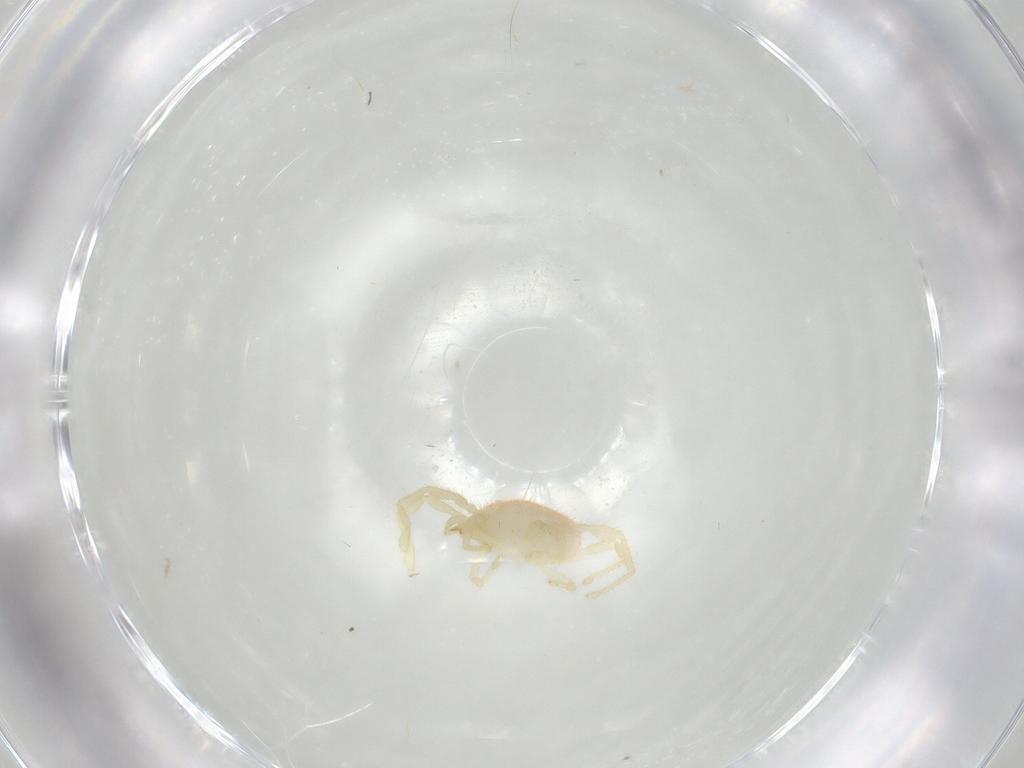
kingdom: Animalia
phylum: Arthropoda
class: Arachnida
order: Trombidiformes
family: Erythraeidae
